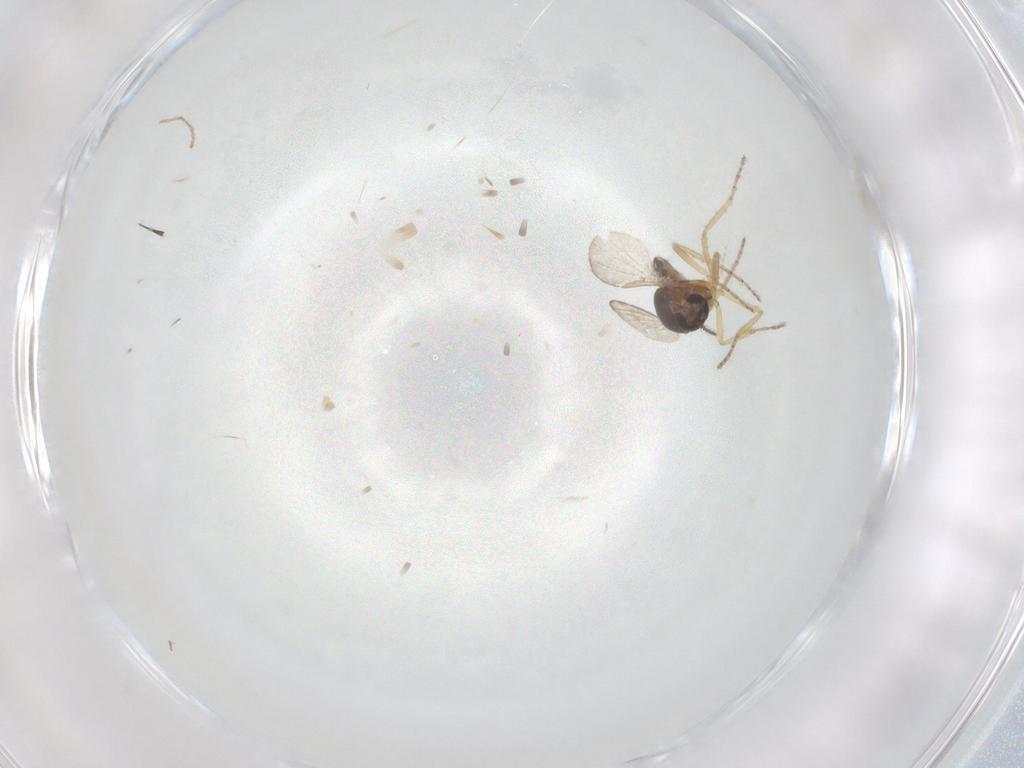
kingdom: Animalia
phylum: Arthropoda
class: Insecta
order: Diptera
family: Ceratopogonidae
